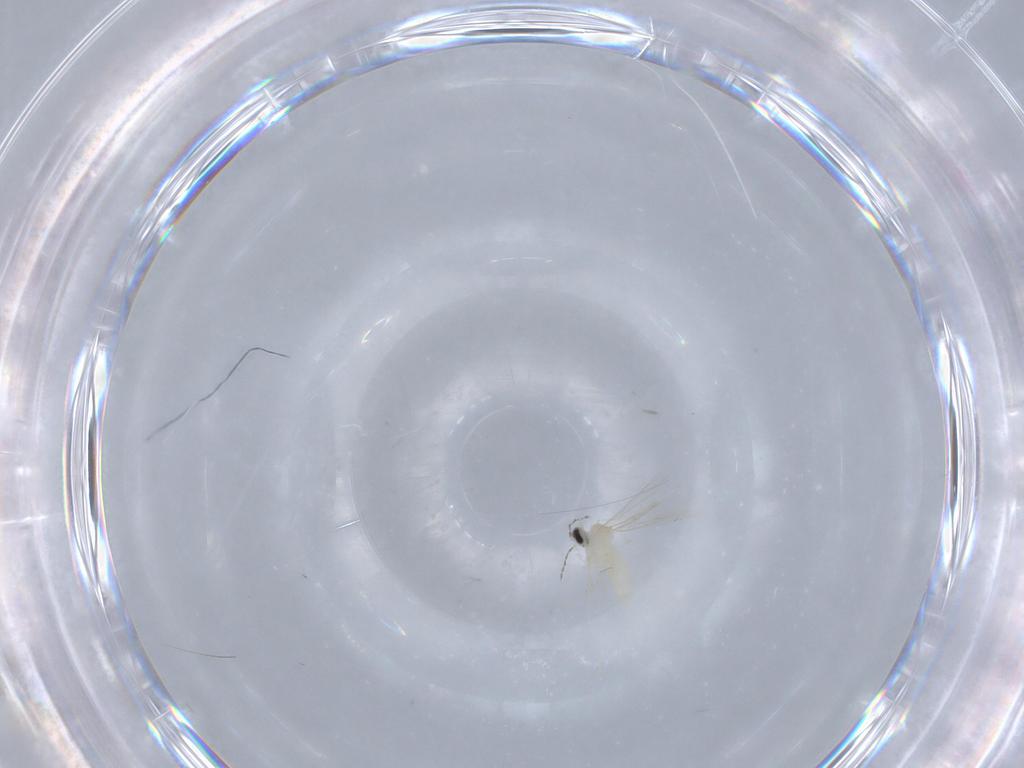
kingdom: Animalia
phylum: Arthropoda
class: Insecta
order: Diptera
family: Cecidomyiidae
